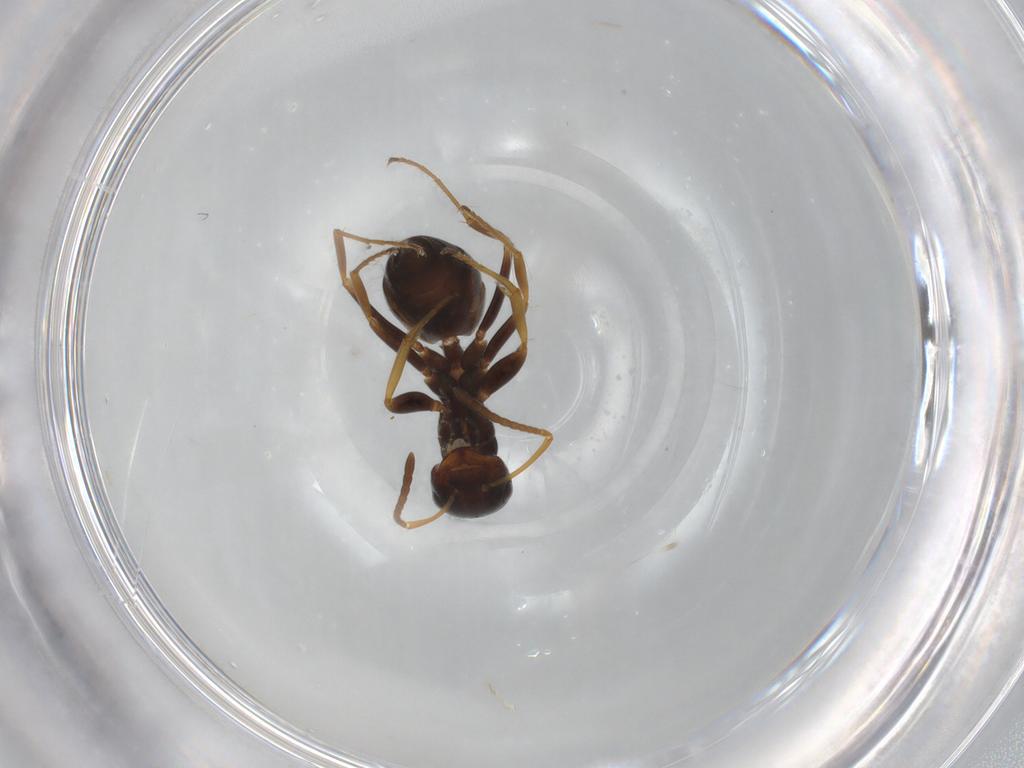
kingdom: Animalia
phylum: Arthropoda
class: Insecta
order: Hymenoptera
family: Formicidae
